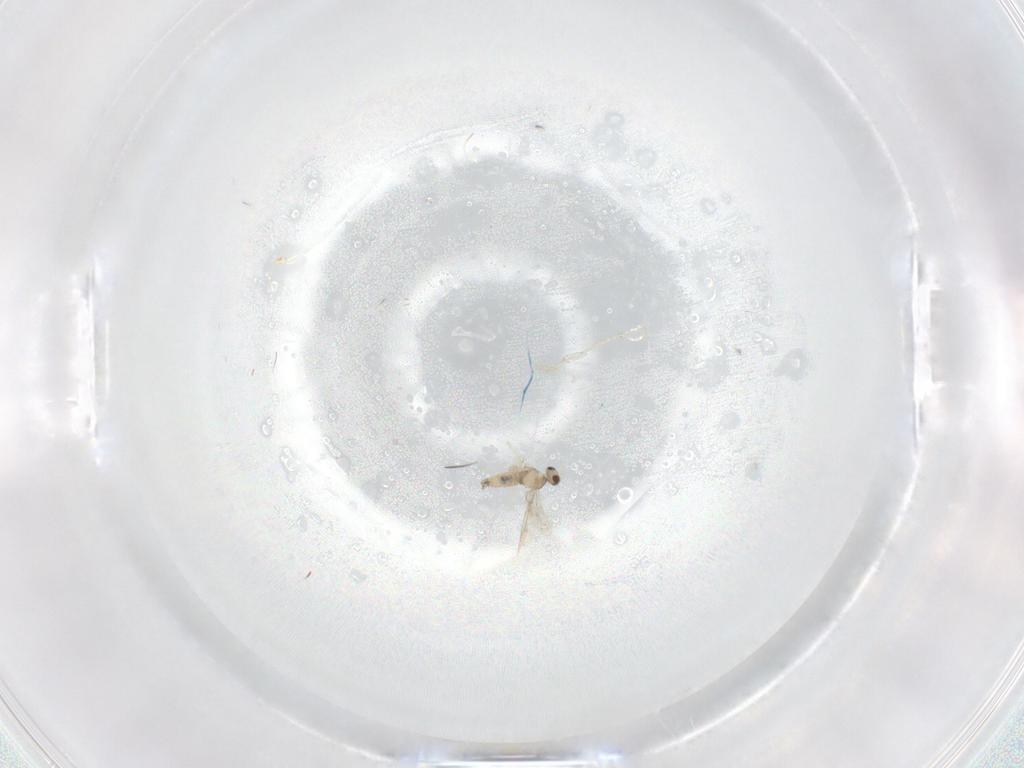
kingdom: Animalia
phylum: Arthropoda
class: Insecta
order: Diptera
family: Cecidomyiidae
